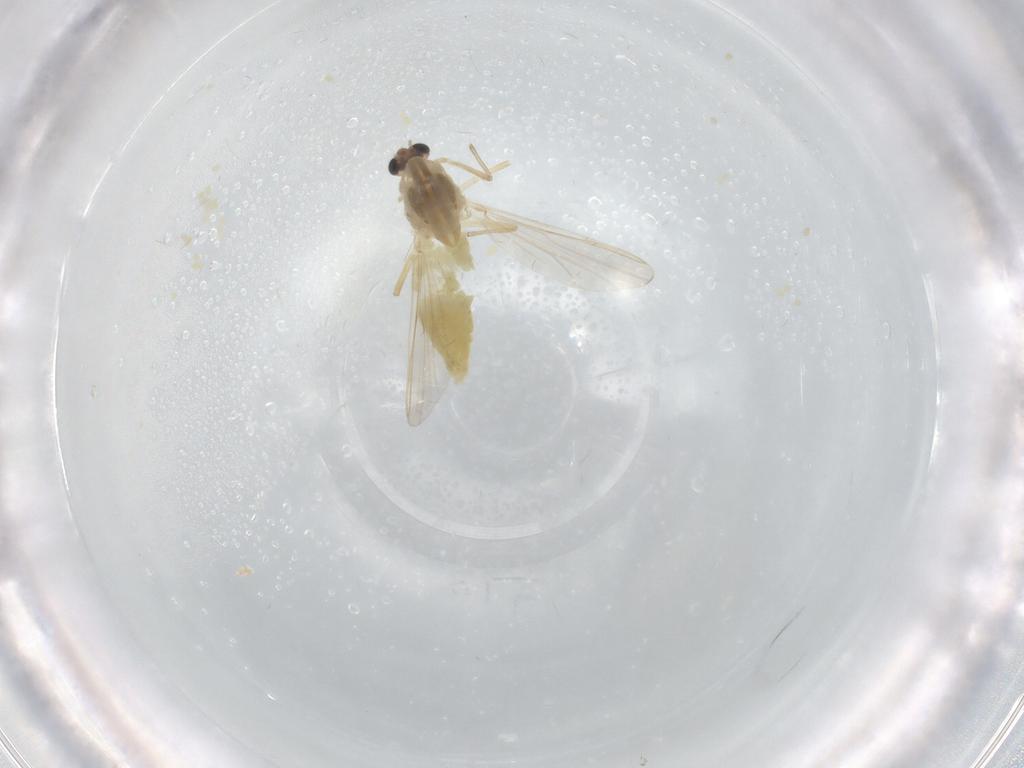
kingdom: Animalia
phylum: Arthropoda
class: Insecta
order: Diptera
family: Chironomidae
